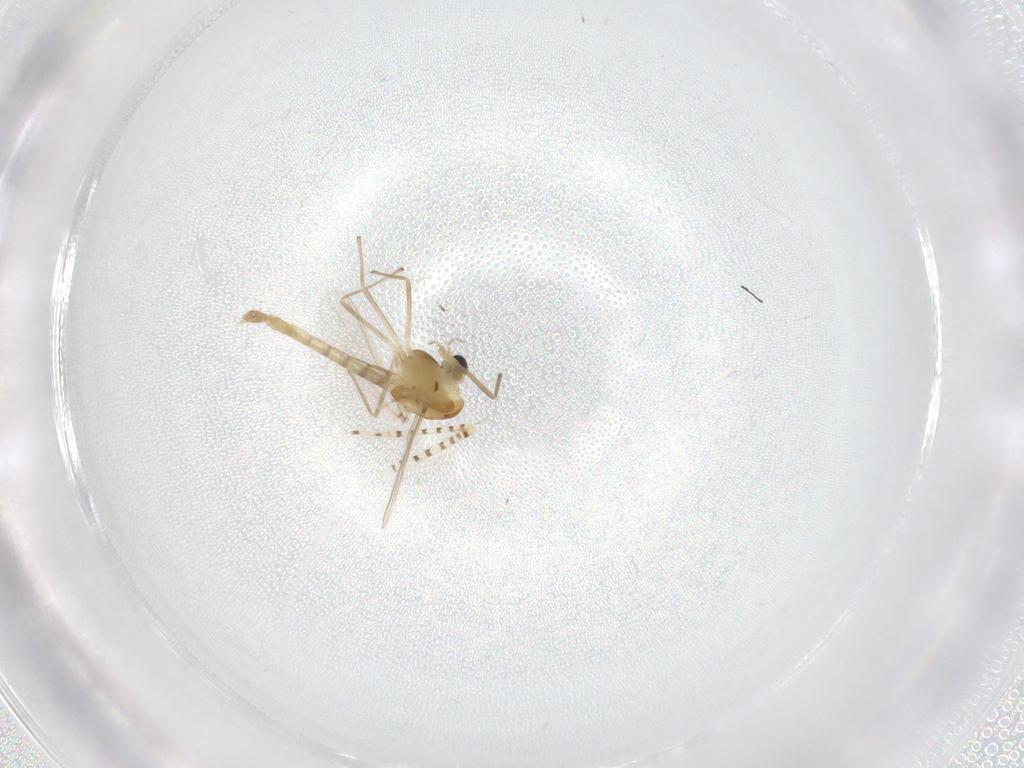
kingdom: Animalia
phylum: Arthropoda
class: Insecta
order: Diptera
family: Chironomidae
